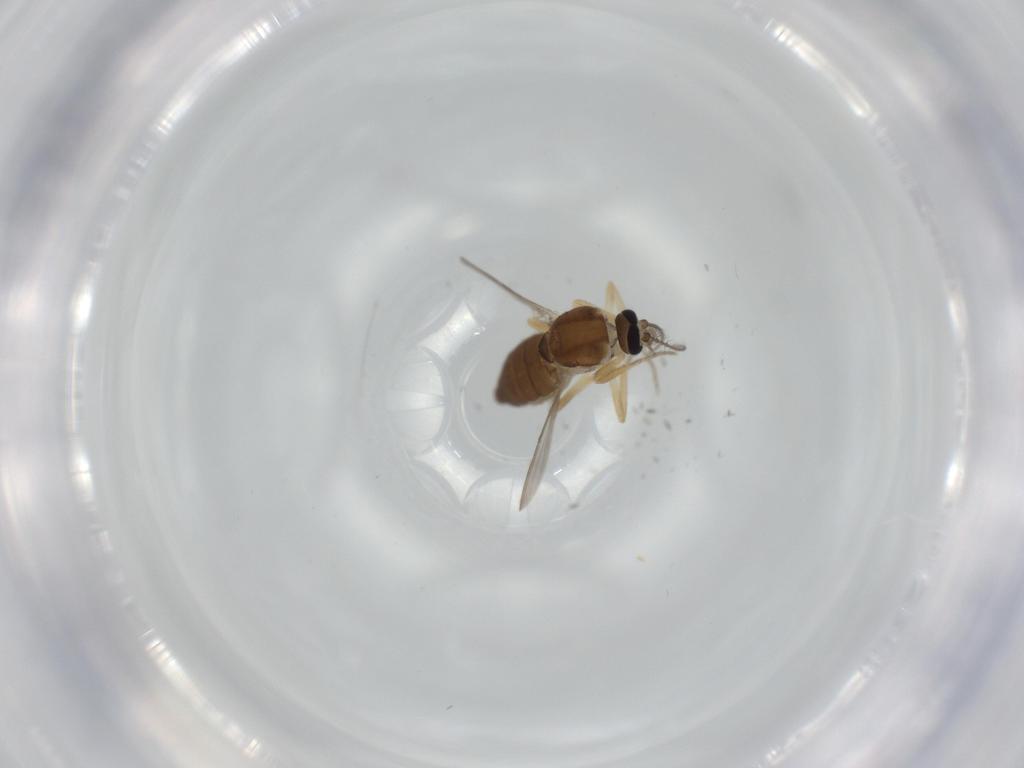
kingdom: Animalia
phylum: Arthropoda
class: Insecta
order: Diptera
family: Ceratopogonidae
